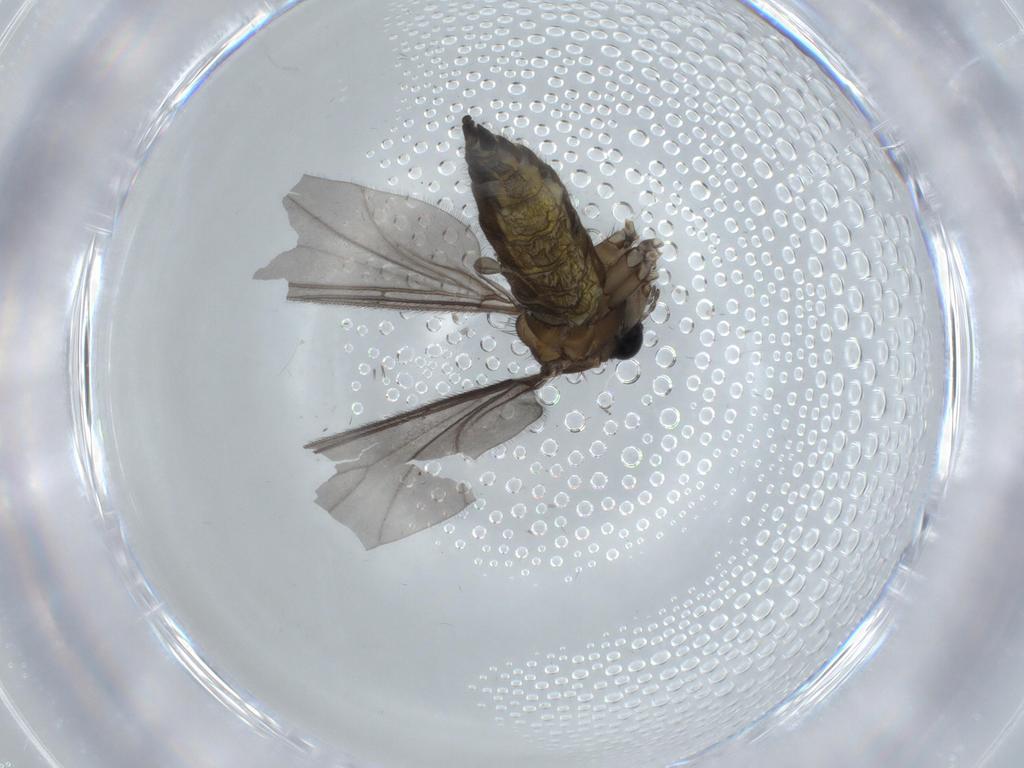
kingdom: Animalia
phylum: Arthropoda
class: Insecta
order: Diptera
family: Sciaridae
